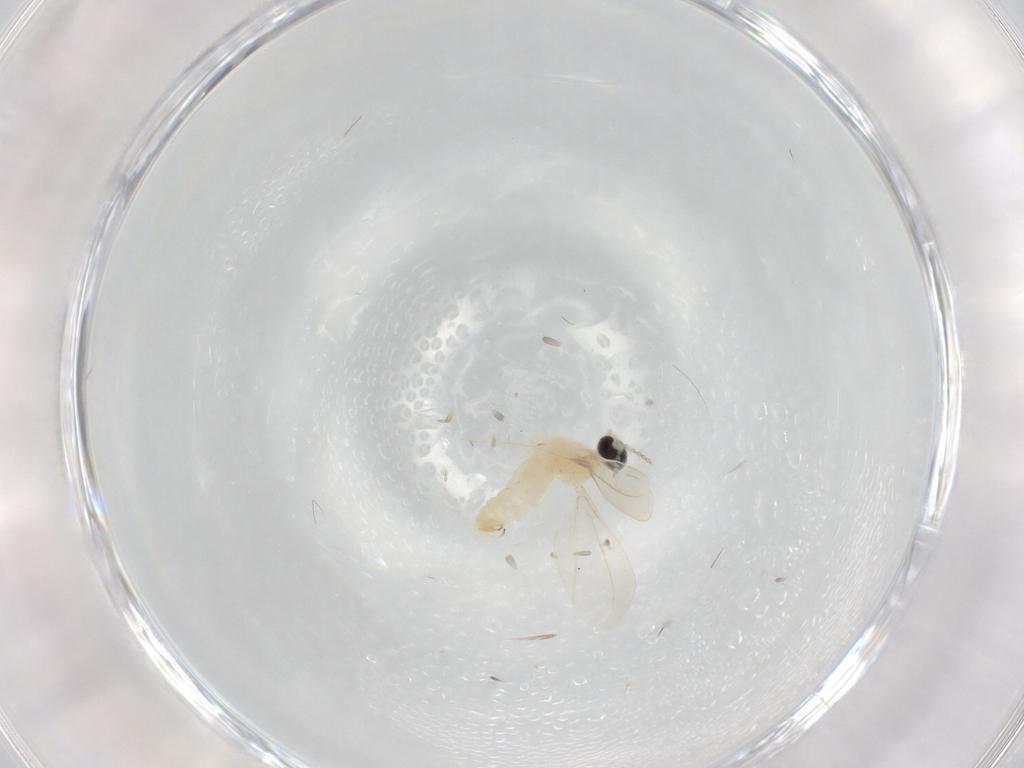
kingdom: Animalia
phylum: Arthropoda
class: Insecta
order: Diptera
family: Cecidomyiidae
